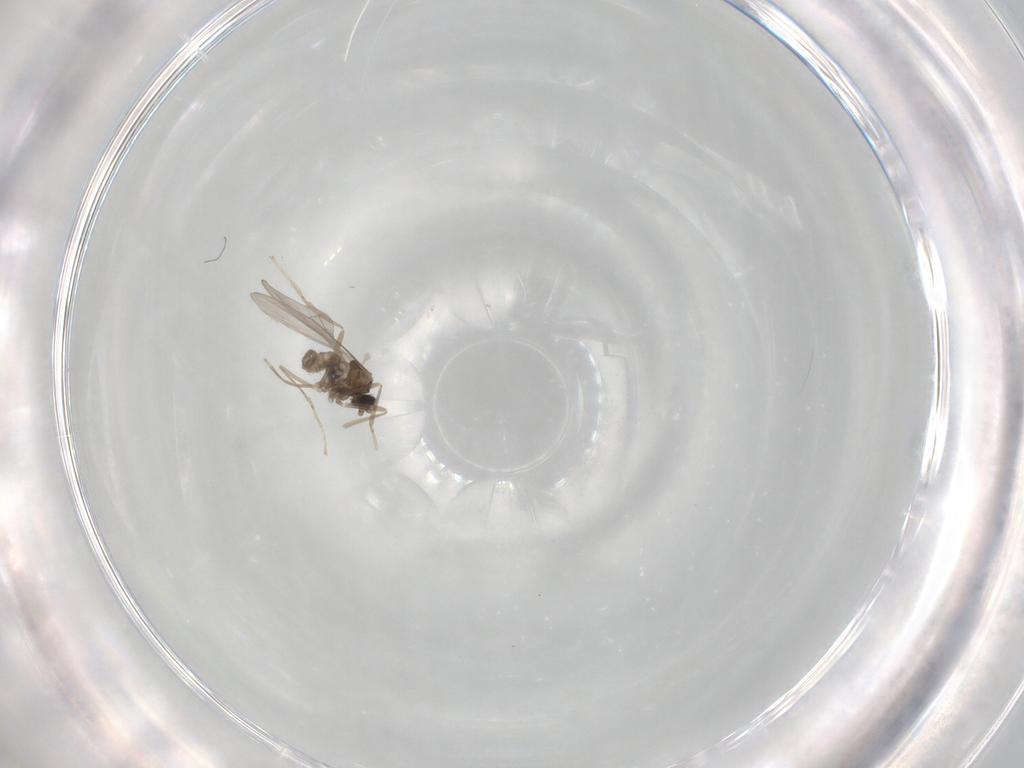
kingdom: Animalia
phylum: Arthropoda
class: Insecta
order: Diptera
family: Cecidomyiidae
